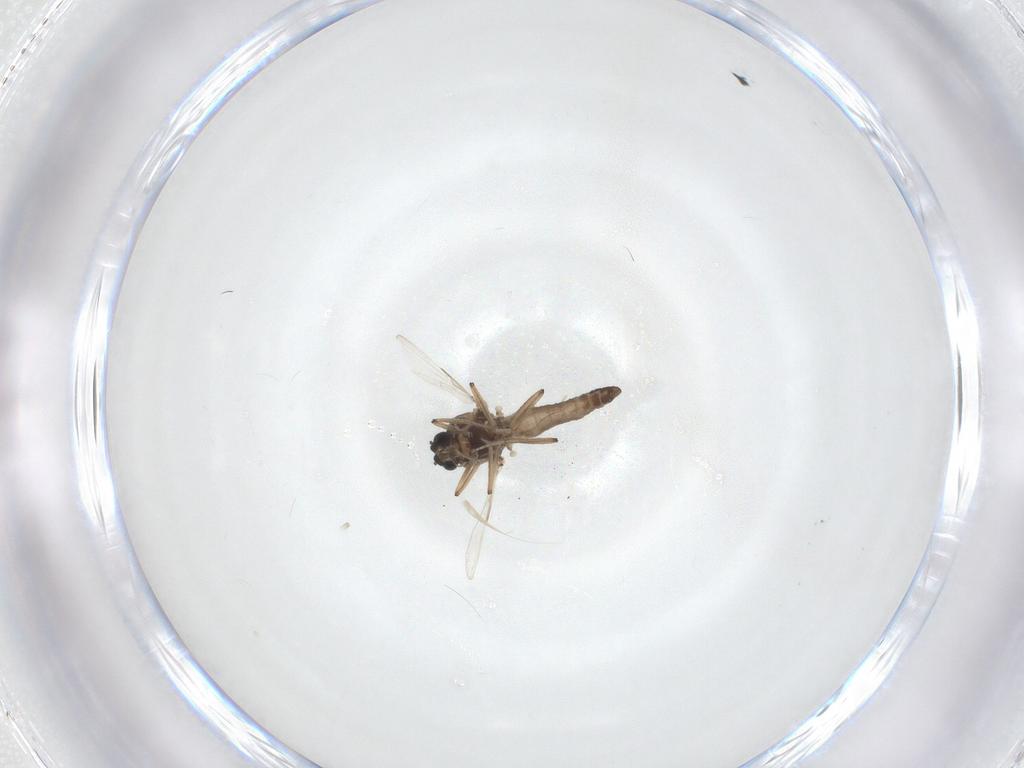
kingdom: Animalia
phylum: Arthropoda
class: Insecta
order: Diptera
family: Ceratopogonidae
